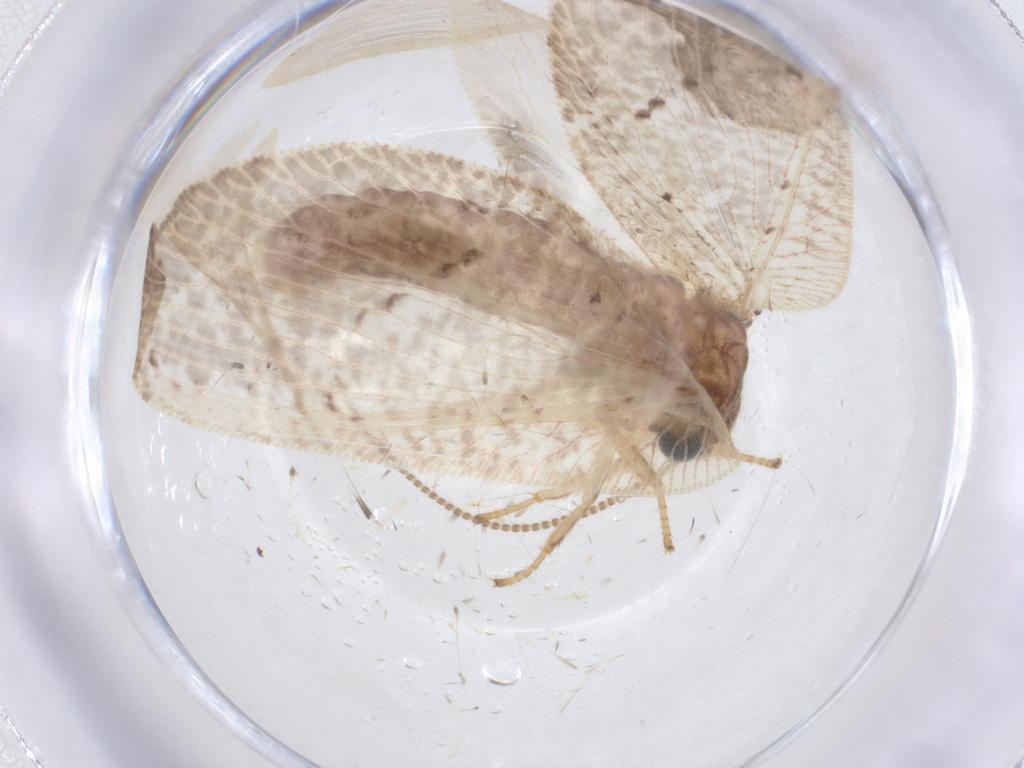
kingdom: Animalia
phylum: Arthropoda
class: Insecta
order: Neuroptera
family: Hemerobiidae
